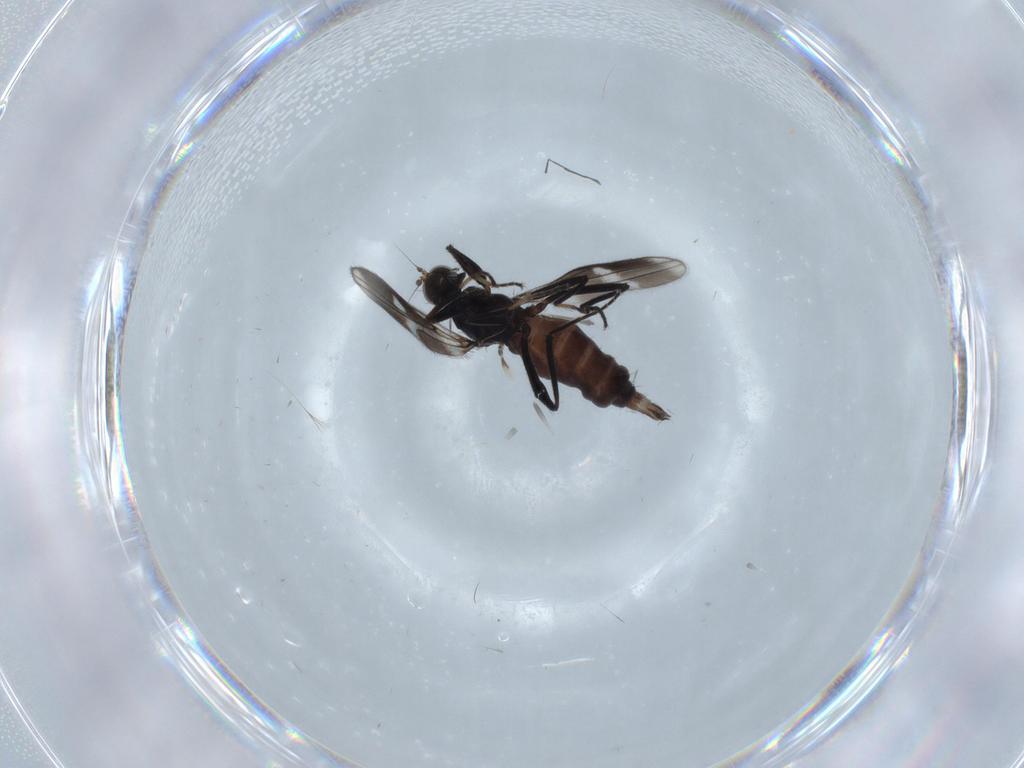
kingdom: Animalia
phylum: Arthropoda
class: Insecta
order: Diptera
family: Hybotidae
